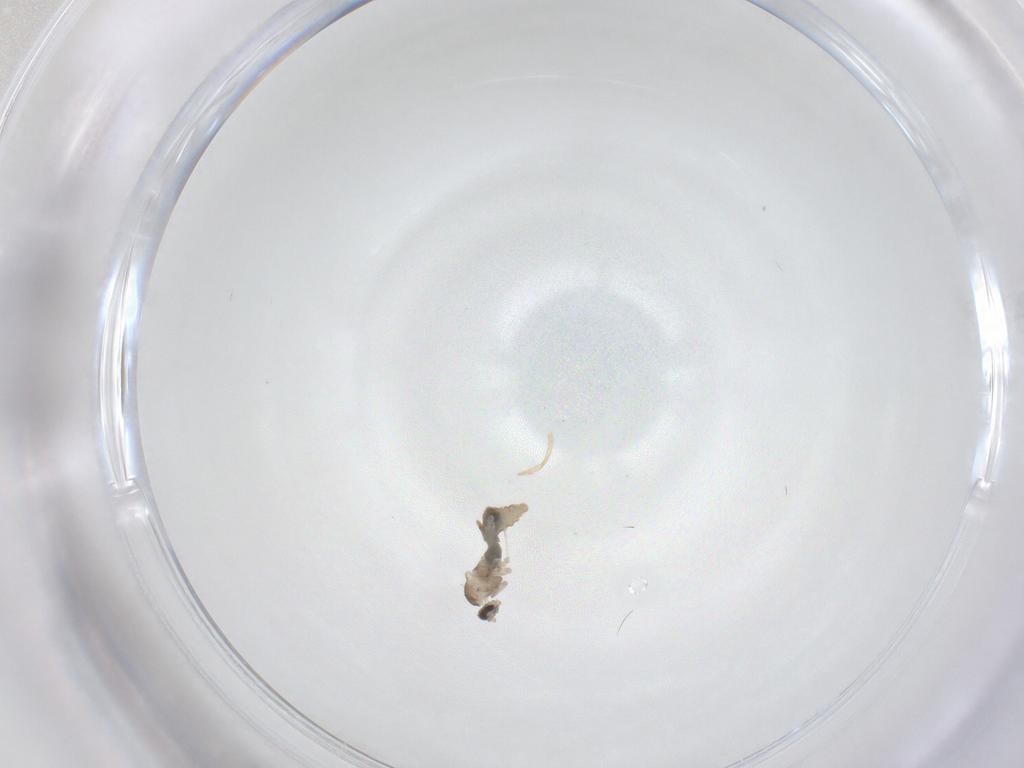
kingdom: Animalia
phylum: Arthropoda
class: Insecta
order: Diptera
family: Cecidomyiidae
